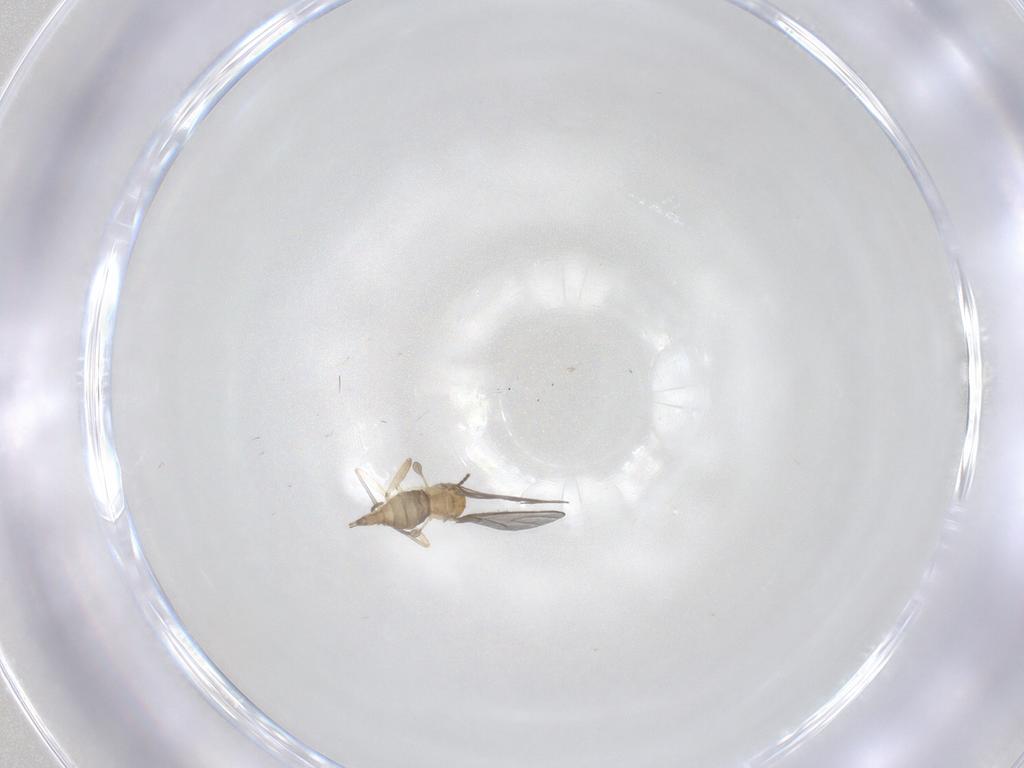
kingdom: Animalia
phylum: Arthropoda
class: Insecta
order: Diptera
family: Sciaridae
